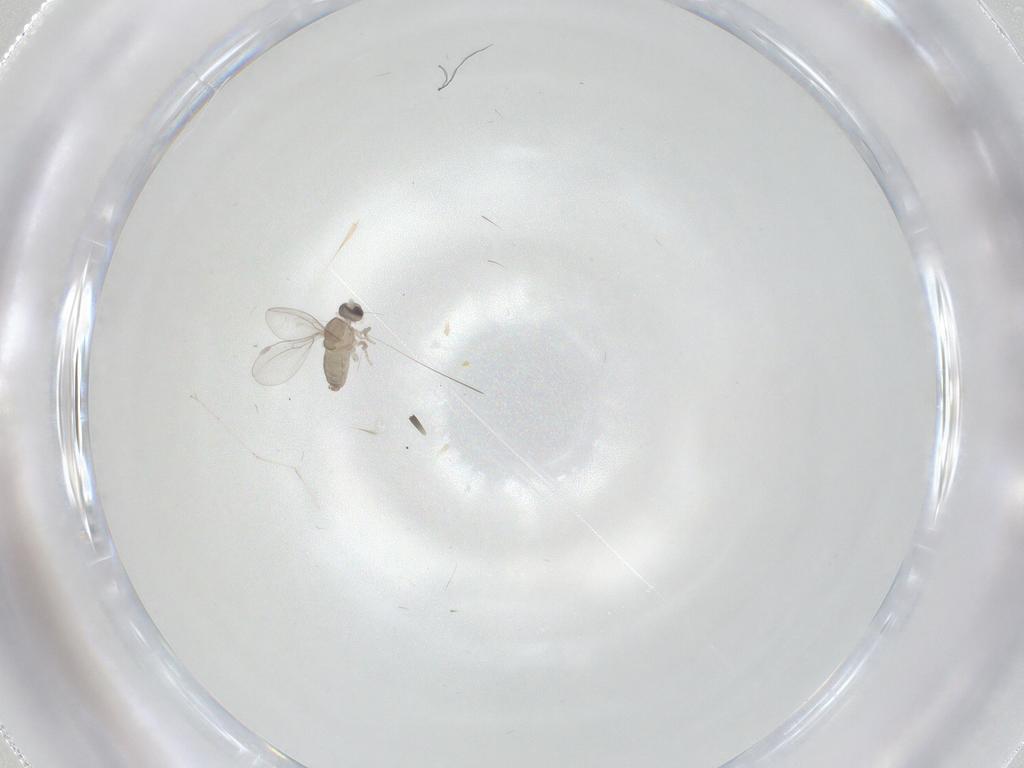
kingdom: Animalia
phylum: Arthropoda
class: Insecta
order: Diptera
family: Cecidomyiidae
